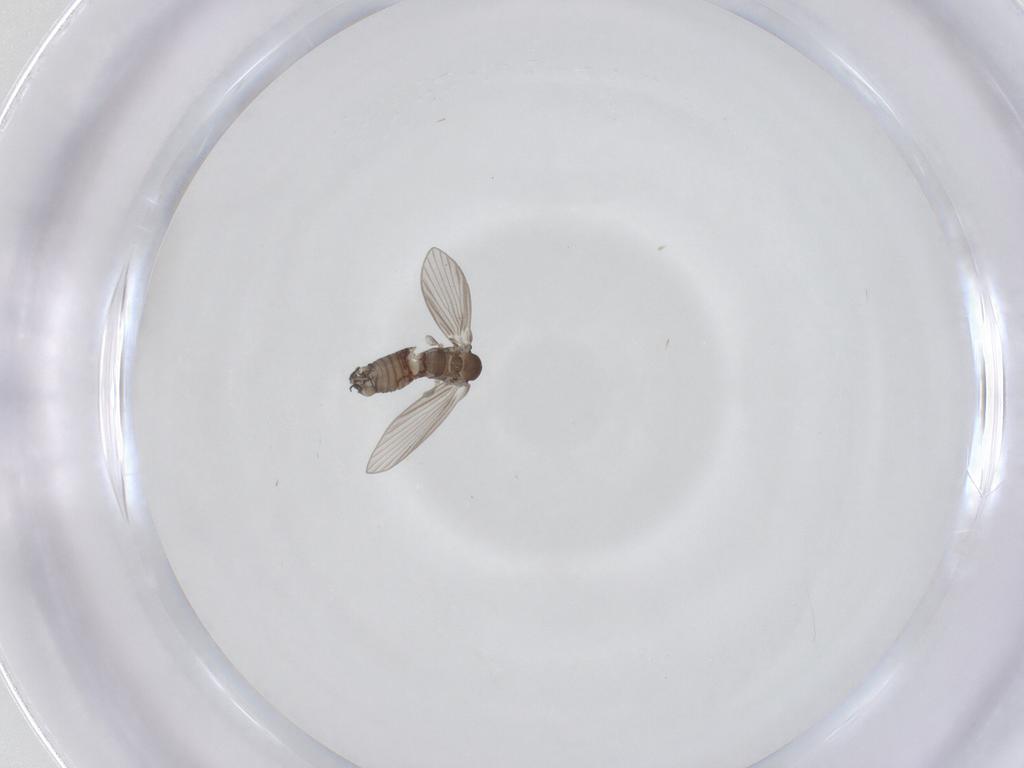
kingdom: Animalia
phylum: Arthropoda
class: Insecta
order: Diptera
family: Psychodidae
